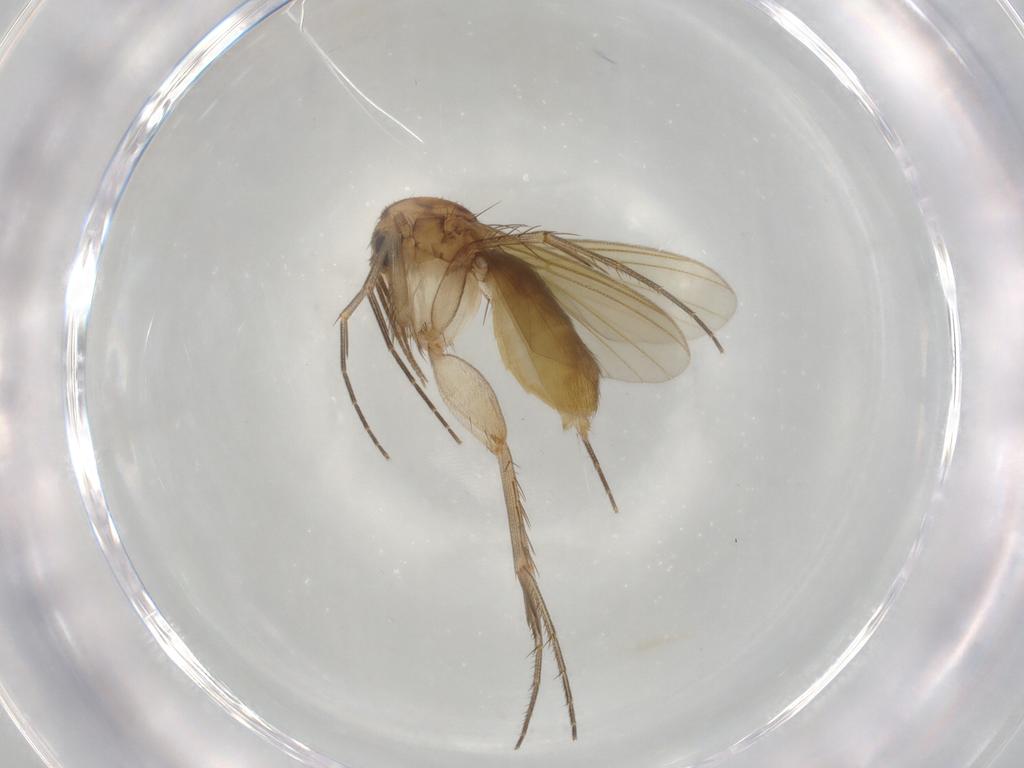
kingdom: Animalia
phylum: Arthropoda
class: Insecta
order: Diptera
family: Mycetophilidae
